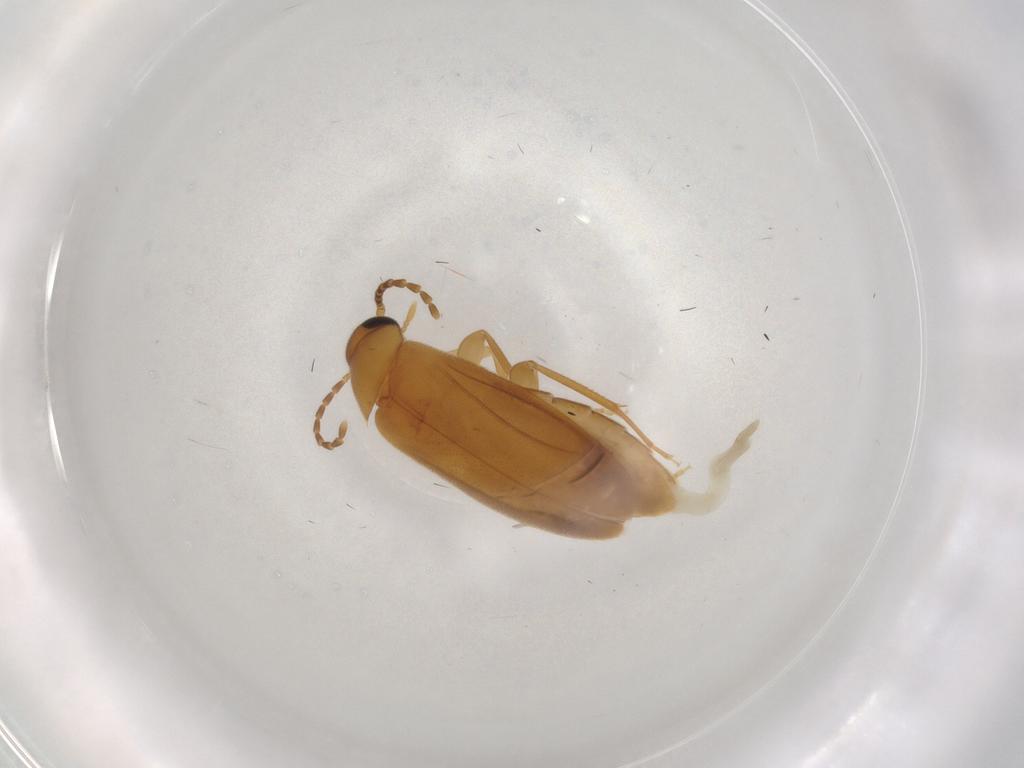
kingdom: Animalia
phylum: Arthropoda
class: Insecta
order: Coleoptera
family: Scraptiidae
